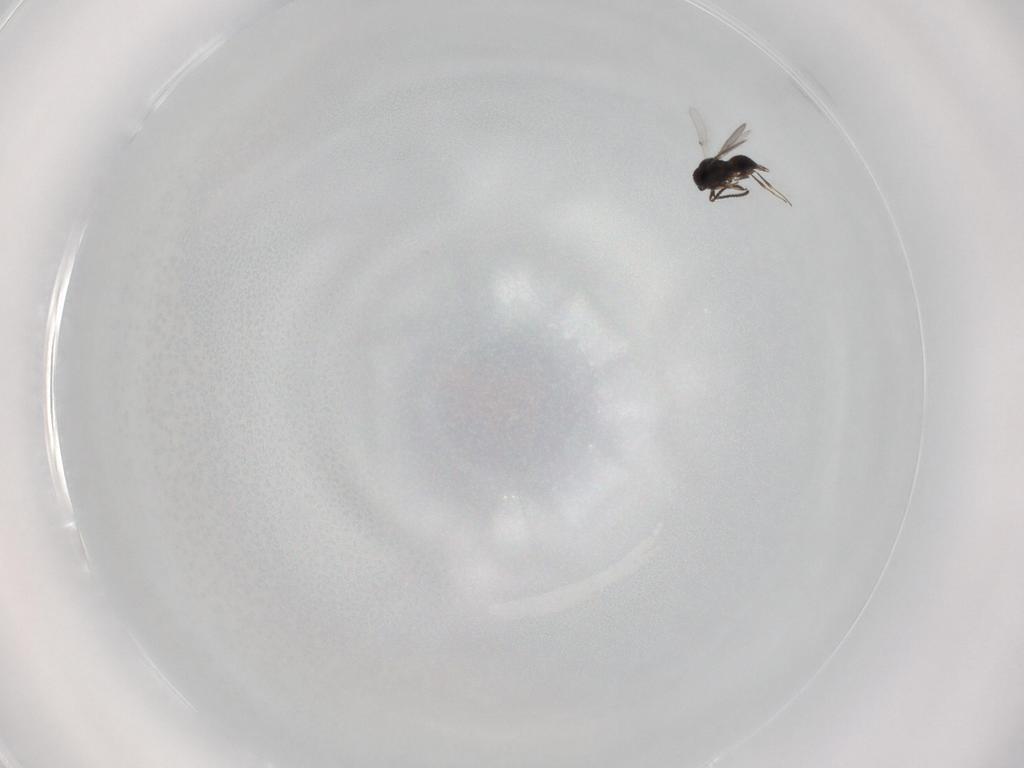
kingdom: Animalia
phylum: Arthropoda
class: Insecta
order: Hymenoptera
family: Scelionidae
